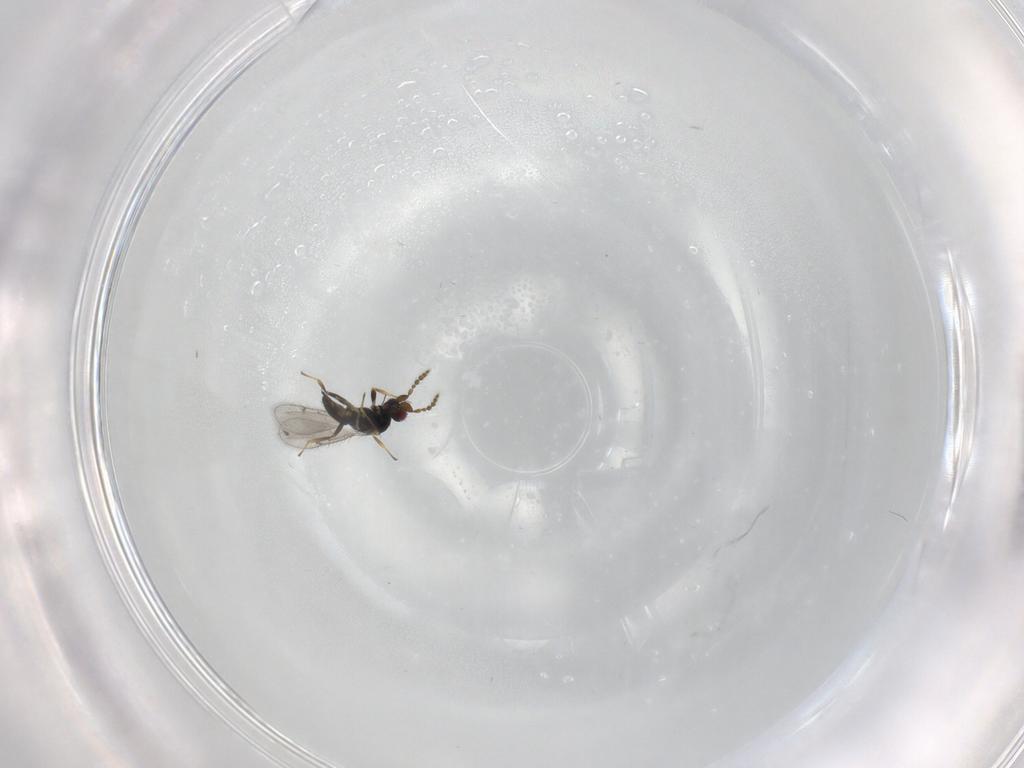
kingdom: Animalia
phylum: Arthropoda
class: Insecta
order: Hymenoptera
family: Eulophidae
